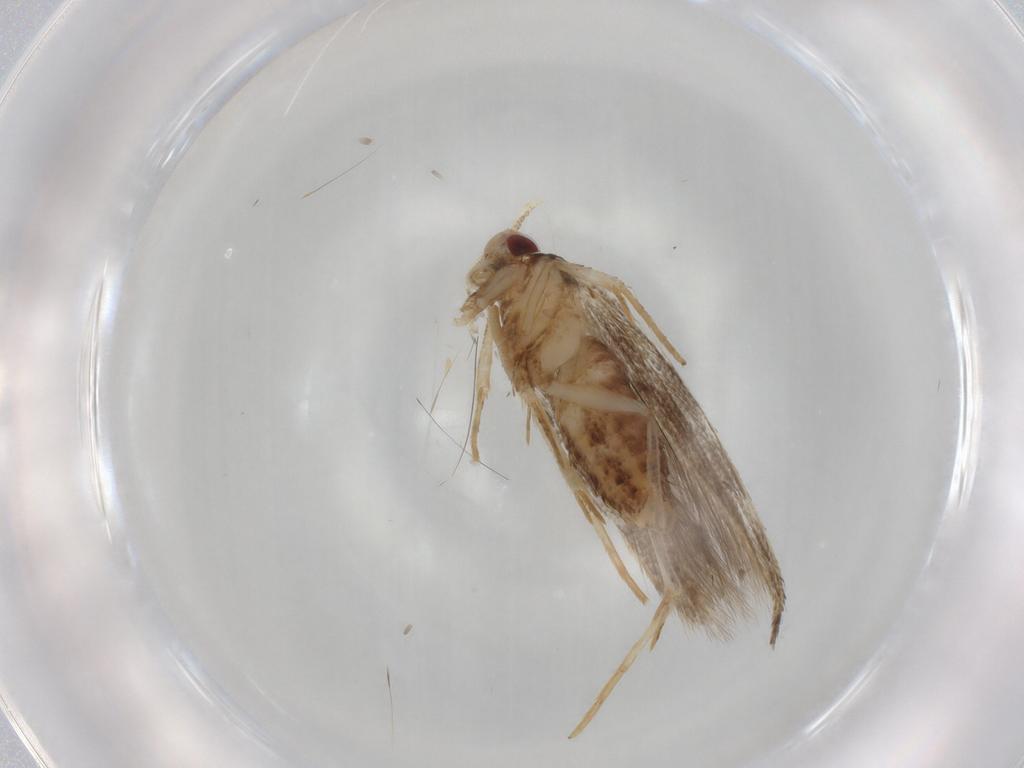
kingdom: Animalia
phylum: Arthropoda
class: Insecta
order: Lepidoptera
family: Cosmopterigidae
